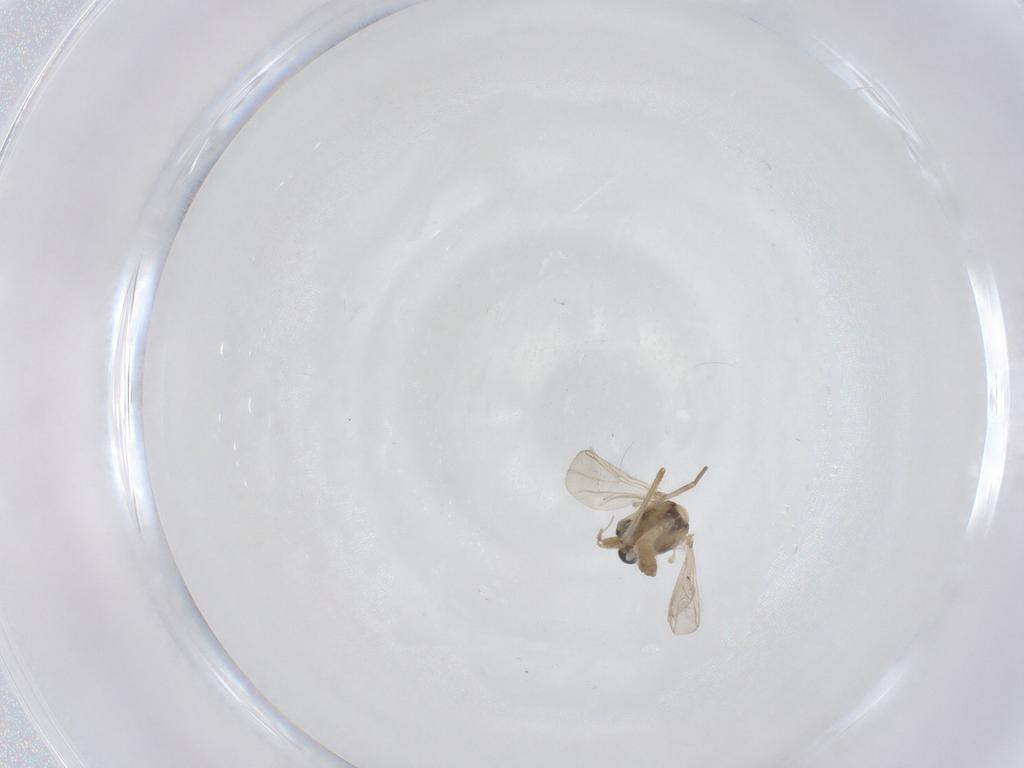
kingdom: Animalia
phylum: Arthropoda
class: Insecta
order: Diptera
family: Chironomidae
